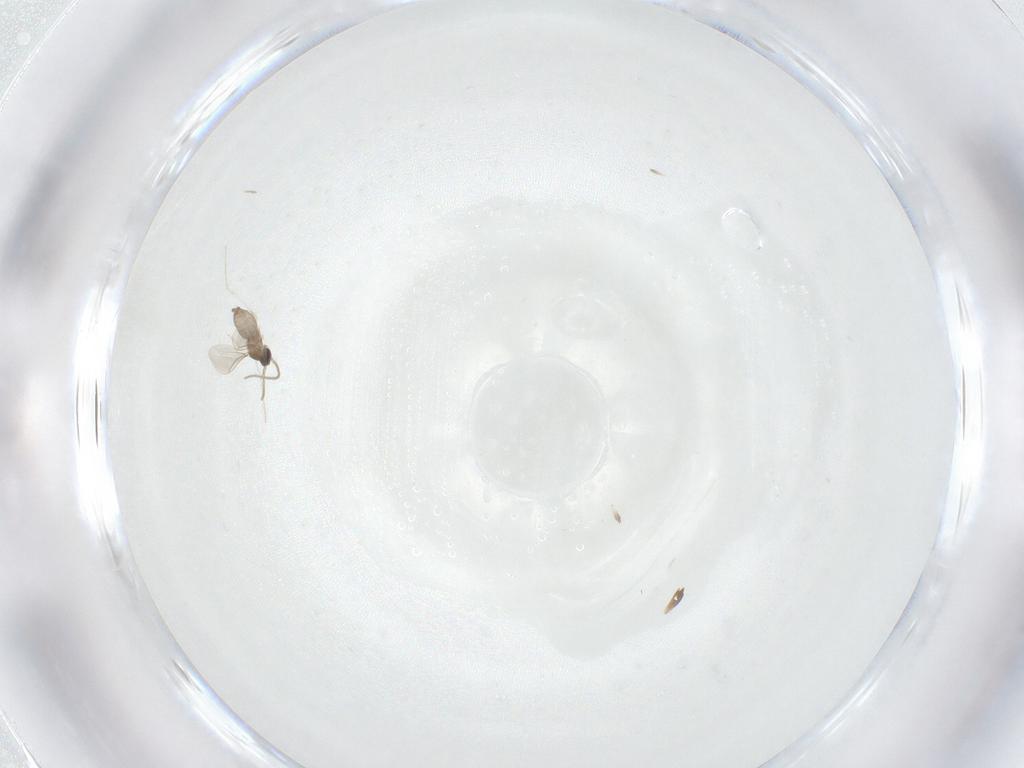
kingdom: Animalia
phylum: Arthropoda
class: Insecta
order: Diptera
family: Cecidomyiidae
